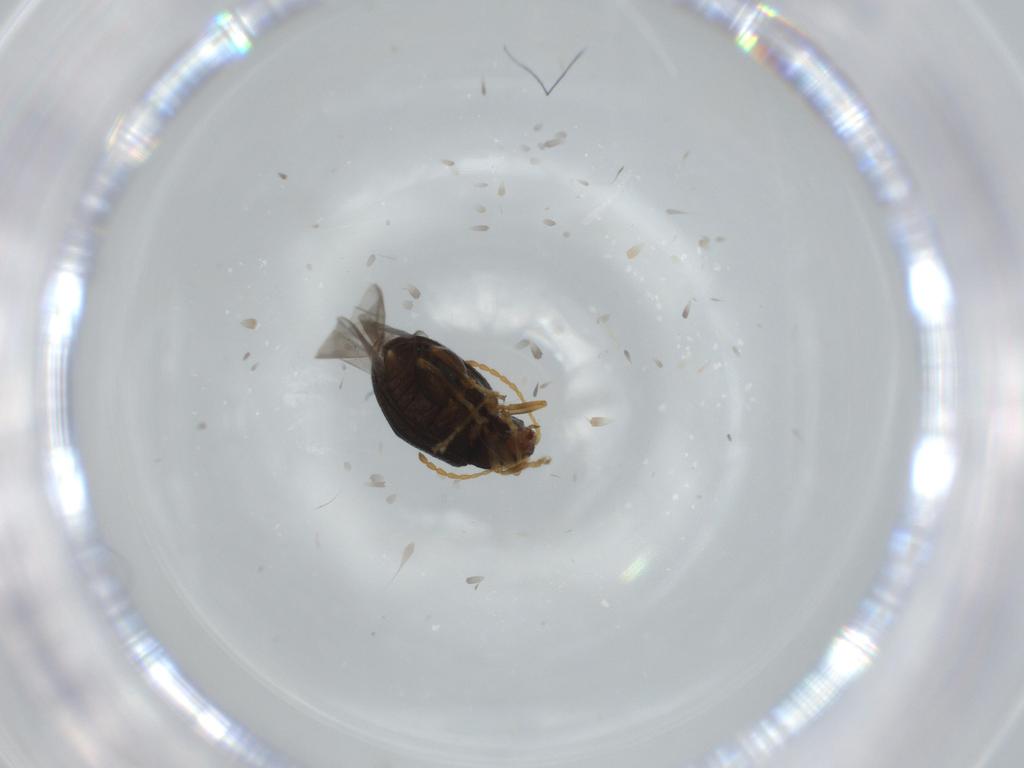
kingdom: Animalia
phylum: Arthropoda
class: Insecta
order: Coleoptera
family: Chrysomelidae
